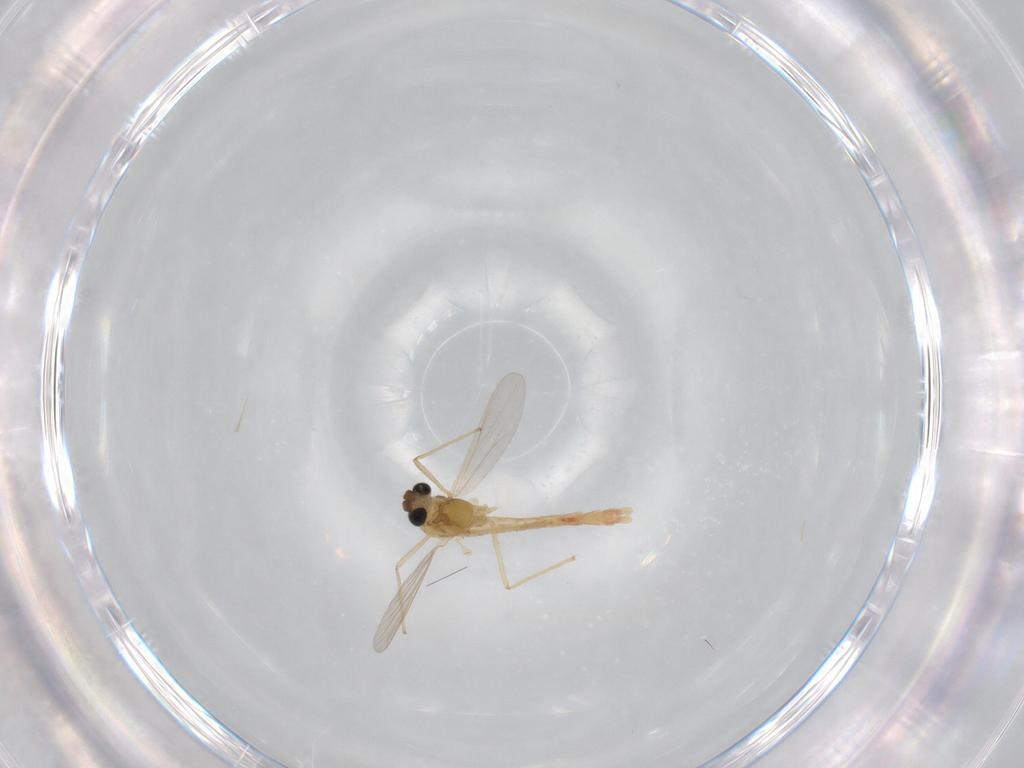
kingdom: Animalia
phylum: Arthropoda
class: Insecta
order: Diptera
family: Chironomidae
